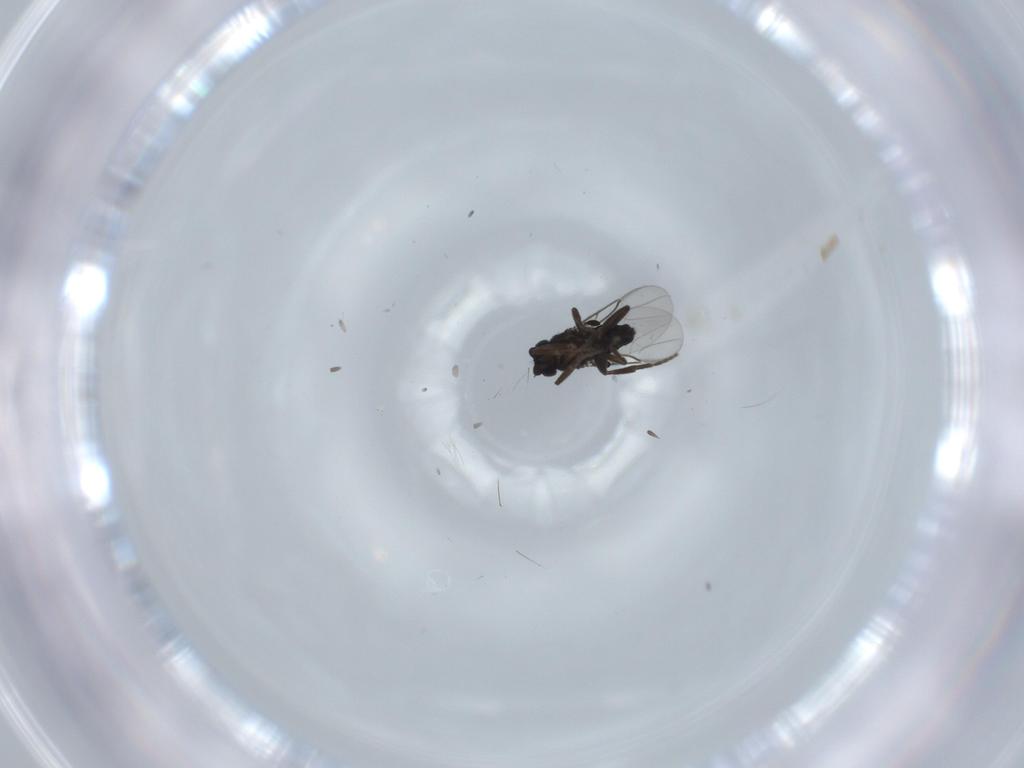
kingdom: Animalia
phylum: Arthropoda
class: Insecta
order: Diptera
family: Phoridae
